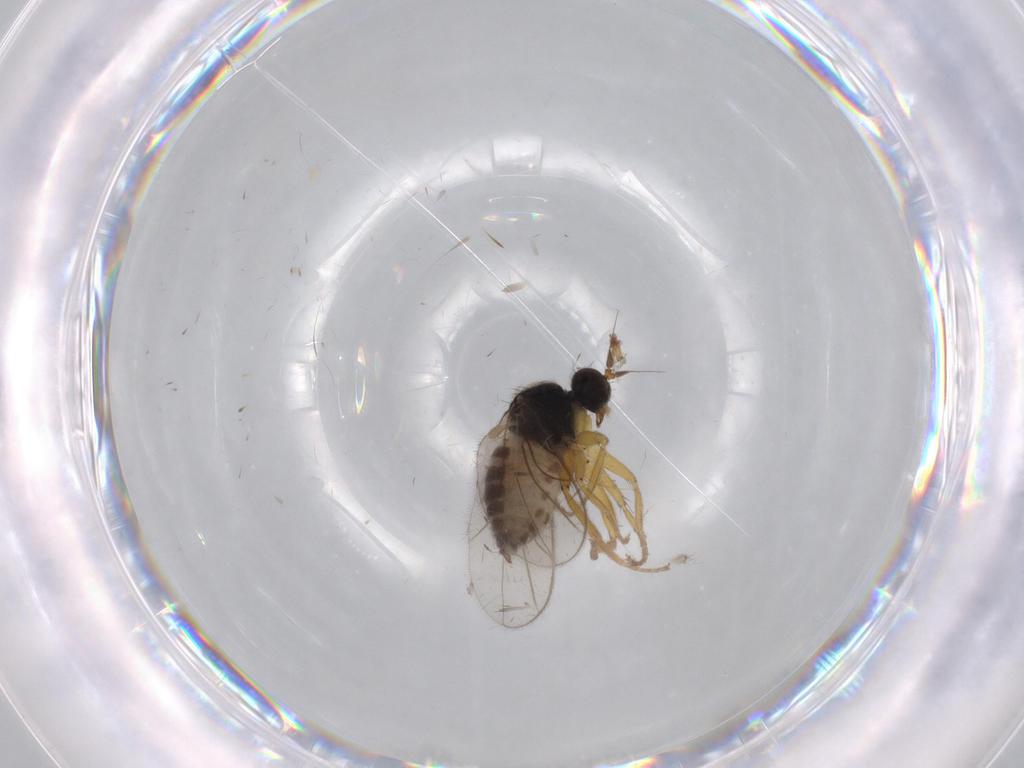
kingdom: Animalia
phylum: Arthropoda
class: Insecta
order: Diptera
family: Hybotidae
